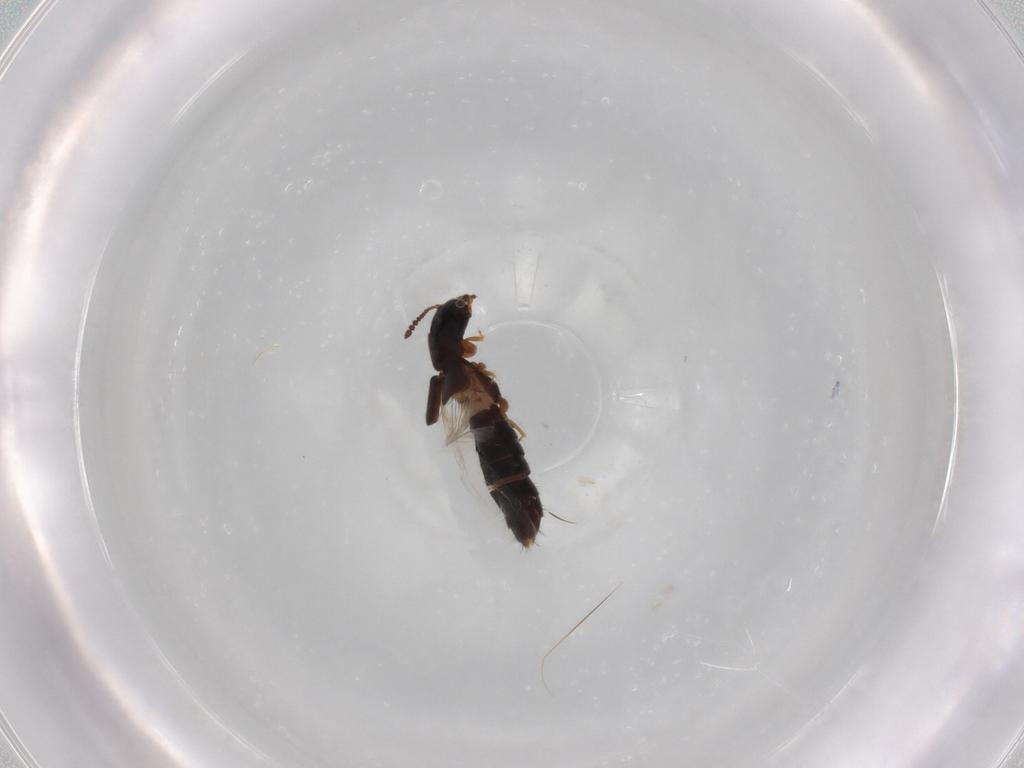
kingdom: Animalia
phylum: Arthropoda
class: Insecta
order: Coleoptera
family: Staphylinidae
